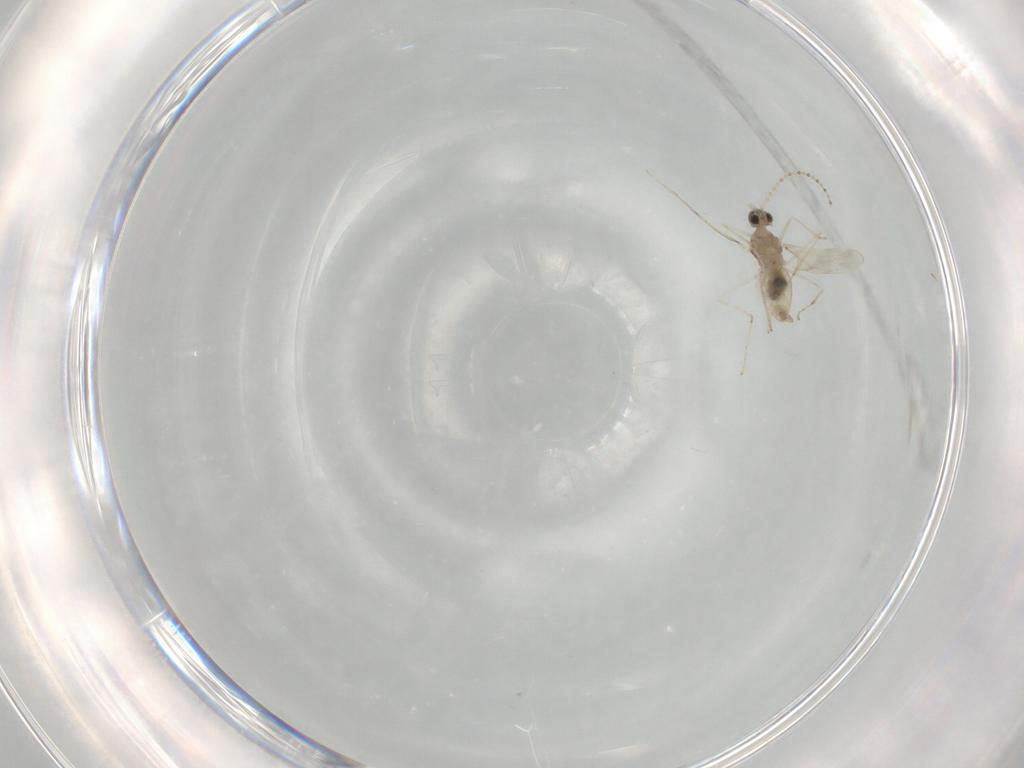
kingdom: Animalia
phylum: Arthropoda
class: Insecta
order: Diptera
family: Cecidomyiidae
